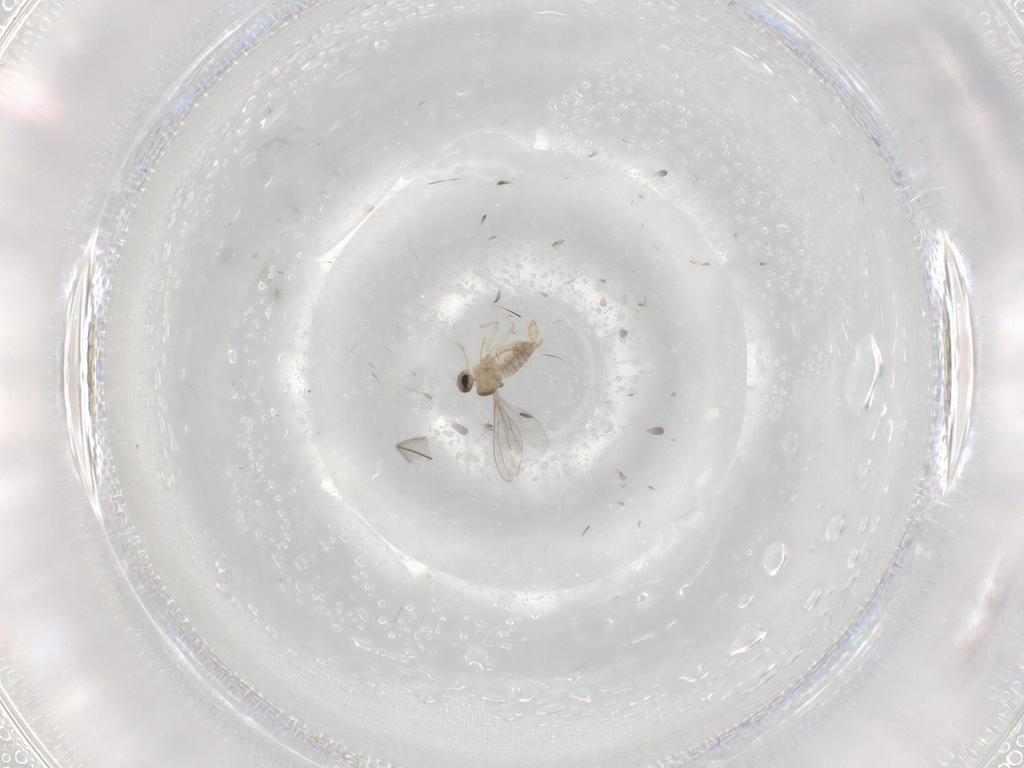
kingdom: Animalia
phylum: Arthropoda
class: Insecta
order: Diptera
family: Cecidomyiidae
